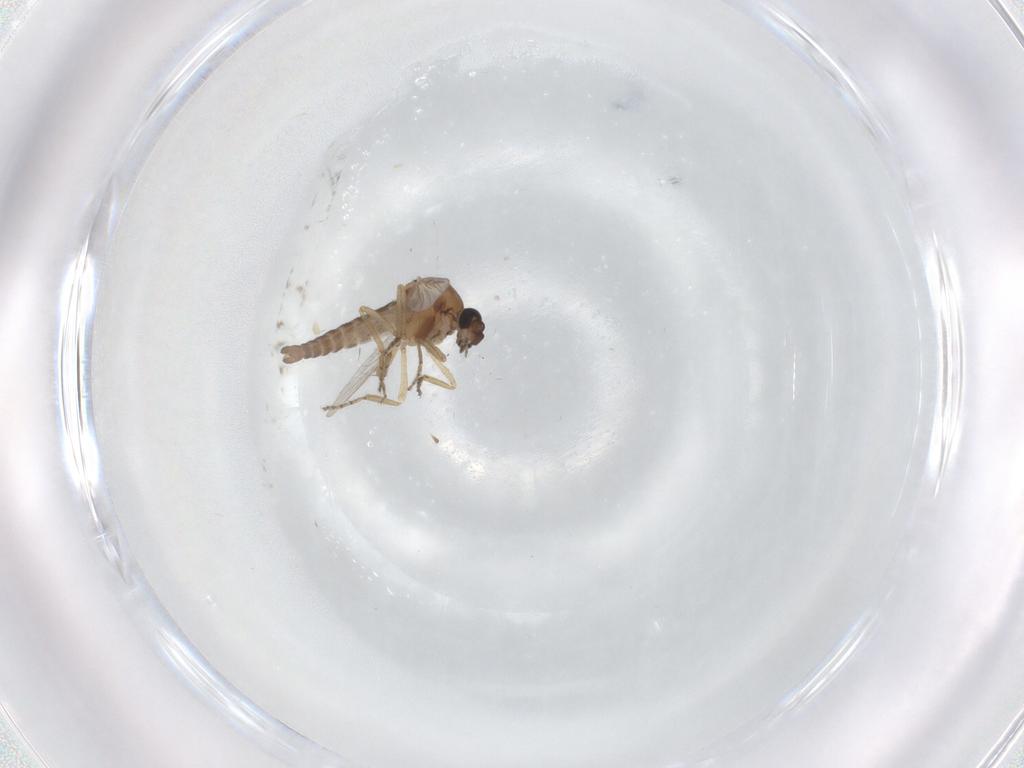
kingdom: Animalia
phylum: Arthropoda
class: Insecta
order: Diptera
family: Ceratopogonidae
